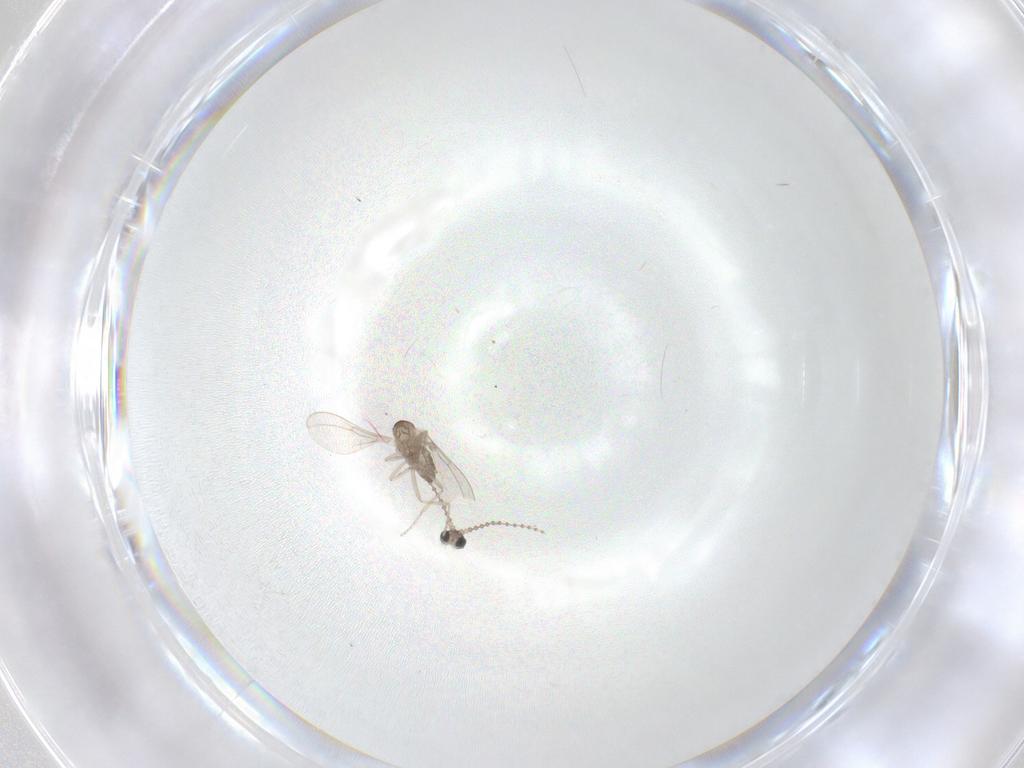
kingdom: Animalia
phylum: Arthropoda
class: Insecta
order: Diptera
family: Cecidomyiidae
